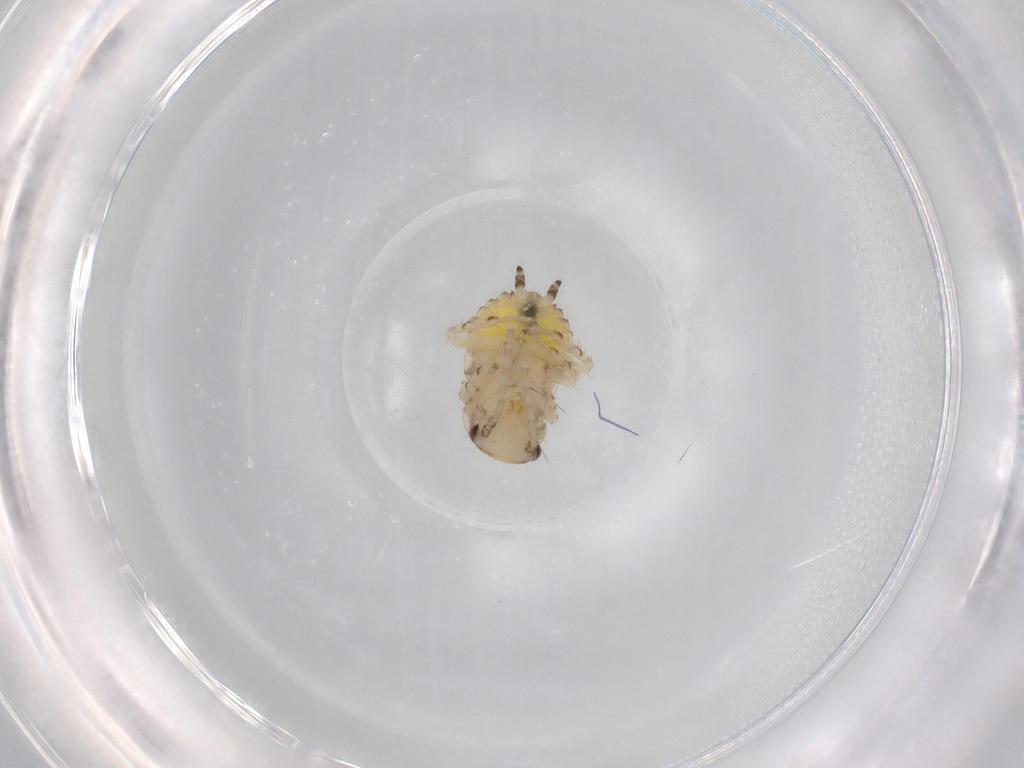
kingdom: Animalia
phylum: Arthropoda
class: Insecta
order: Blattodea
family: Ectobiidae
